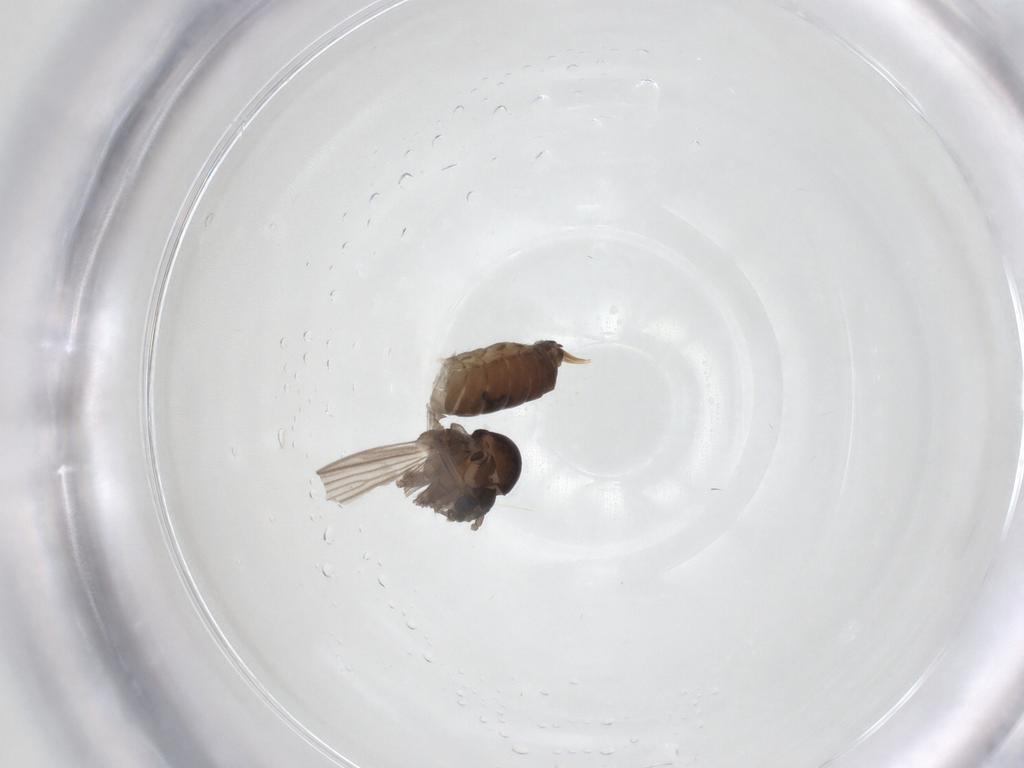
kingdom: Animalia
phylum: Arthropoda
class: Insecta
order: Diptera
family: Psychodidae
